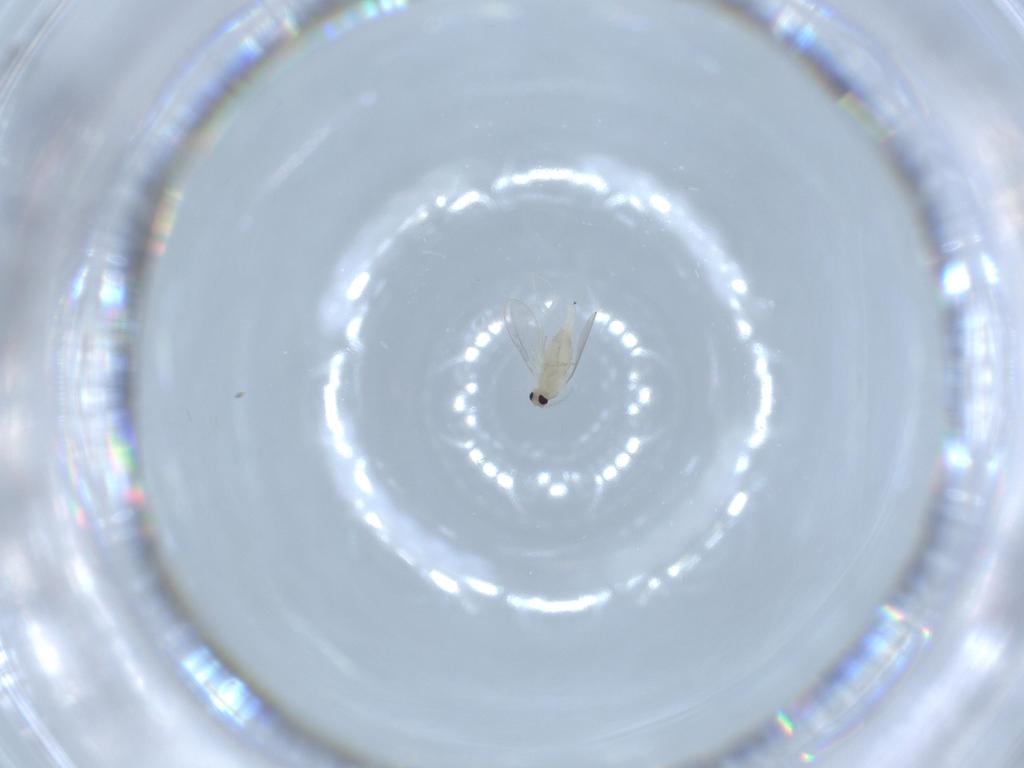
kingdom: Animalia
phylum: Arthropoda
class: Insecta
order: Diptera
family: Cecidomyiidae
